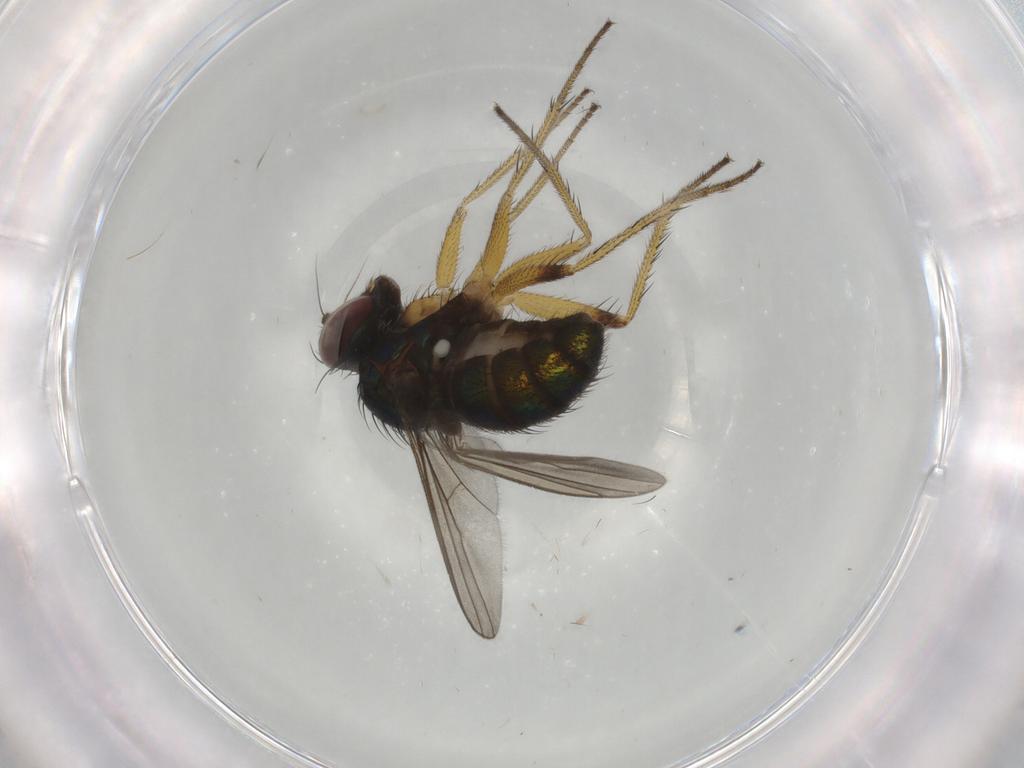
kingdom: Animalia
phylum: Arthropoda
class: Insecta
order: Diptera
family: Dolichopodidae
